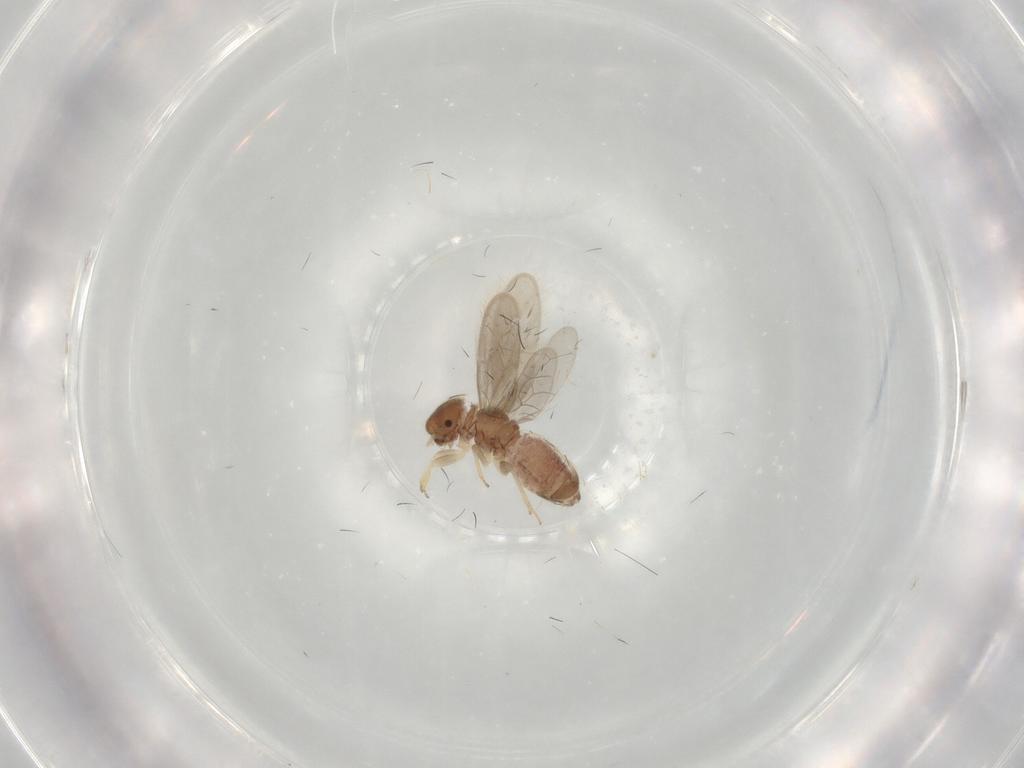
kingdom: Animalia
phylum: Arthropoda
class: Insecta
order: Psocodea
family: Archipsocidae
